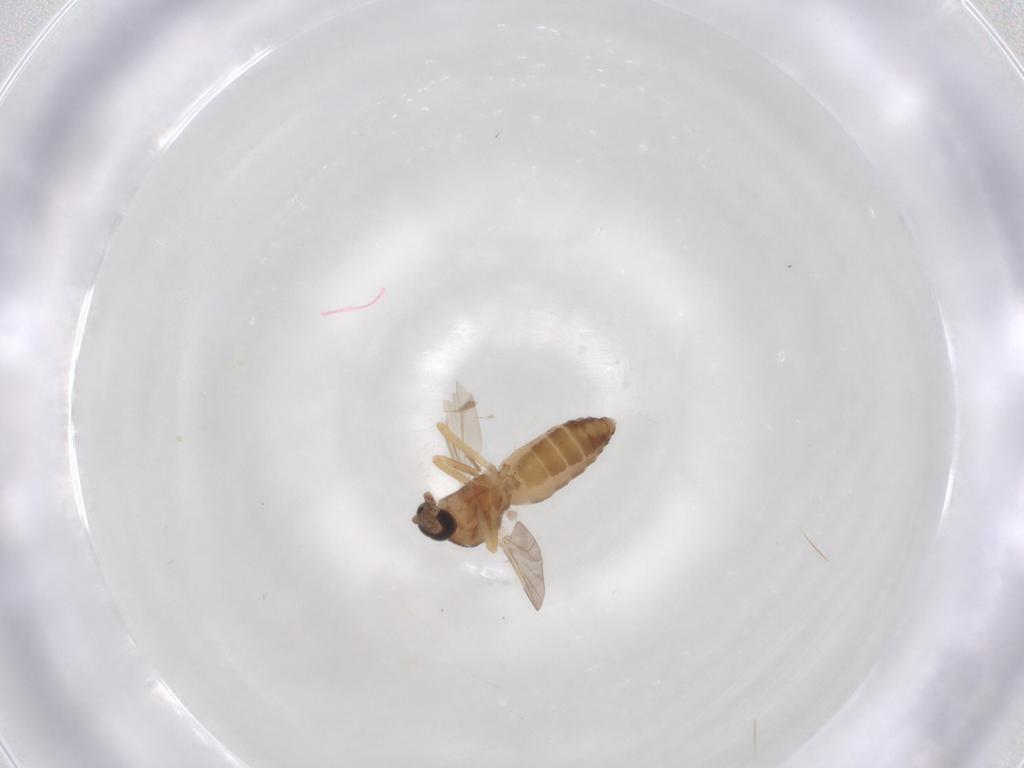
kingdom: Animalia
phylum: Arthropoda
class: Insecta
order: Diptera
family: Ceratopogonidae
